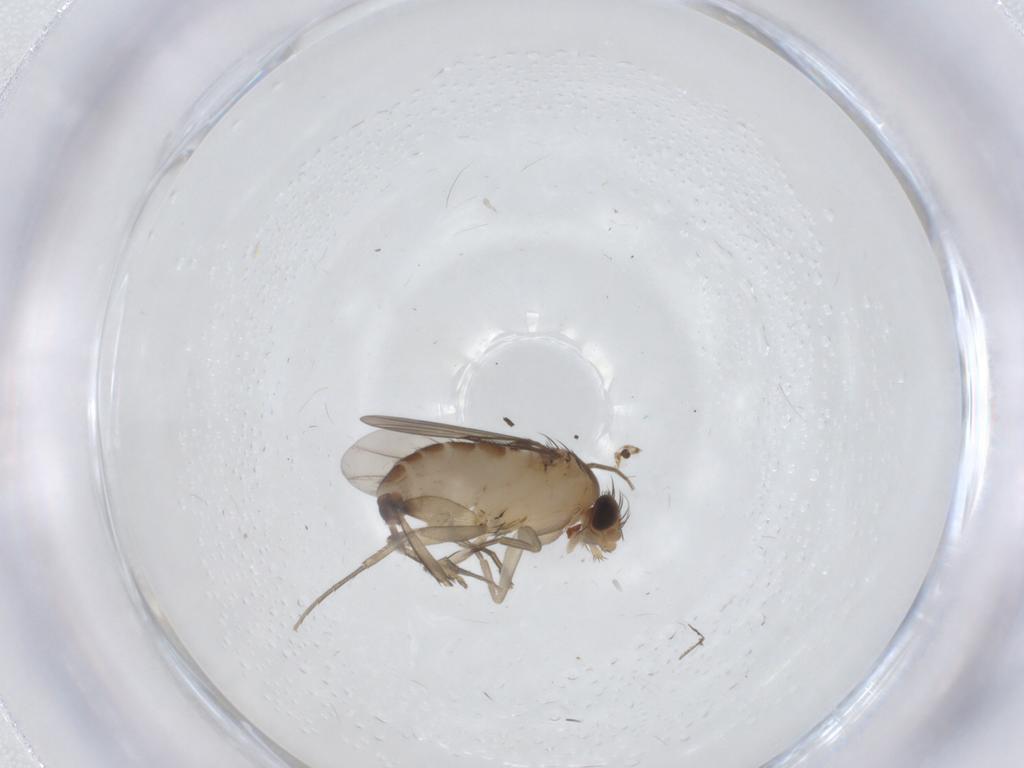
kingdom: Animalia
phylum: Arthropoda
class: Insecta
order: Diptera
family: Phoridae
